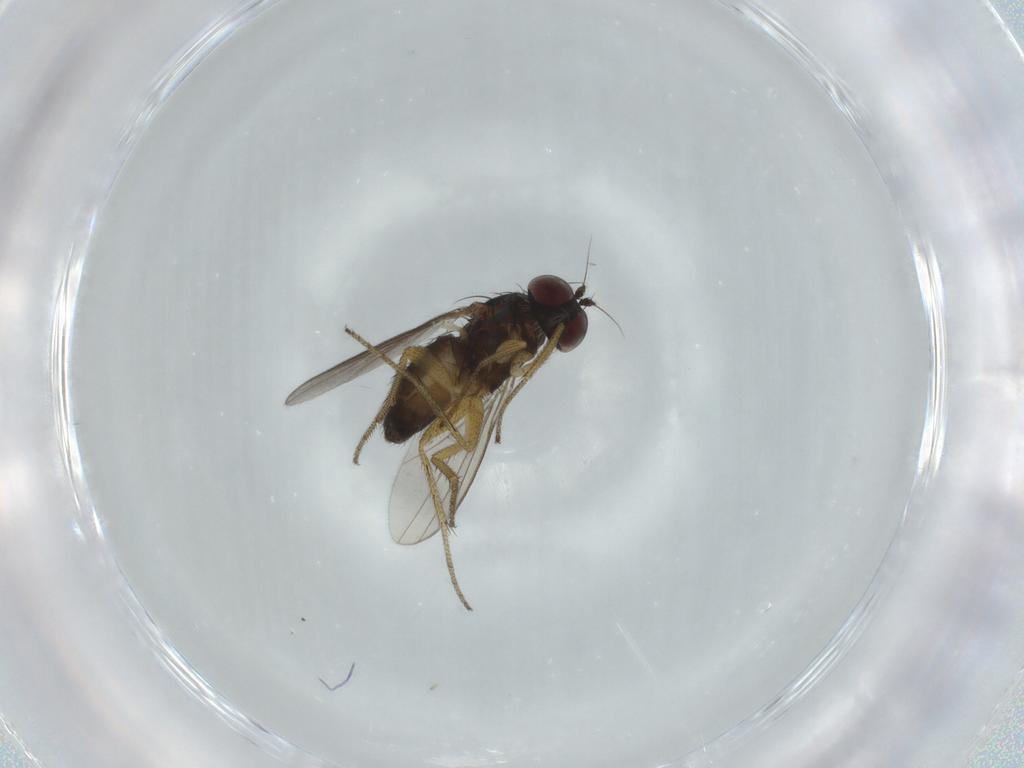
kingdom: Animalia
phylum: Arthropoda
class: Insecta
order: Diptera
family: Dolichopodidae
